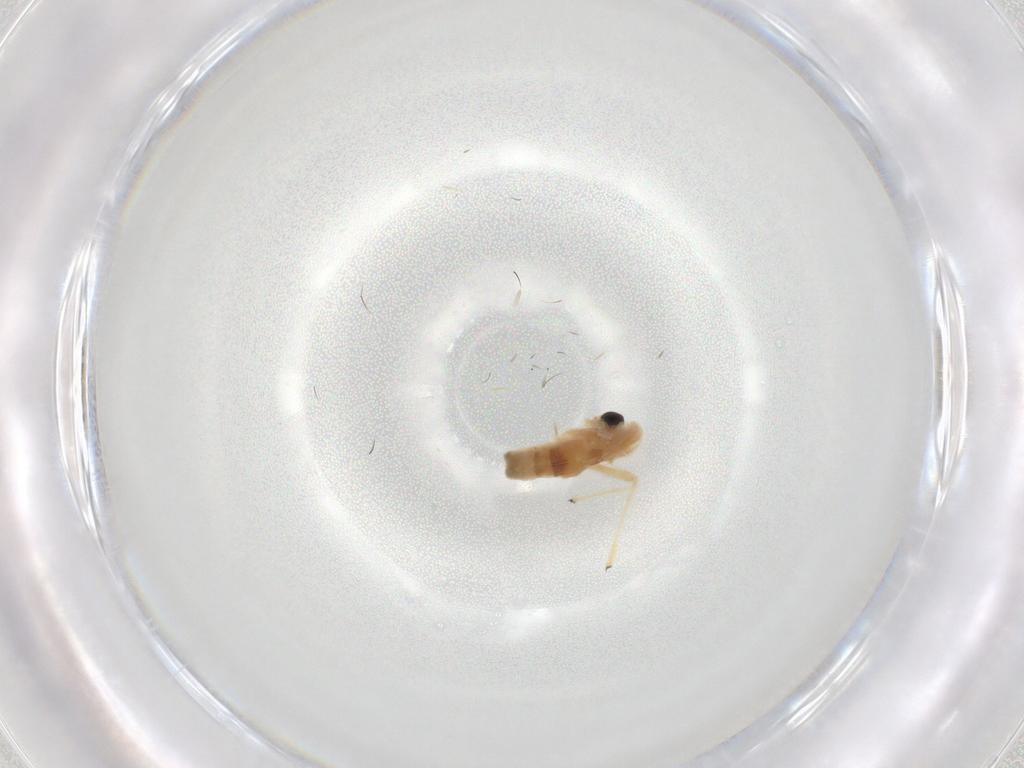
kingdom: Animalia
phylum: Arthropoda
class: Insecta
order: Diptera
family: Chironomidae
